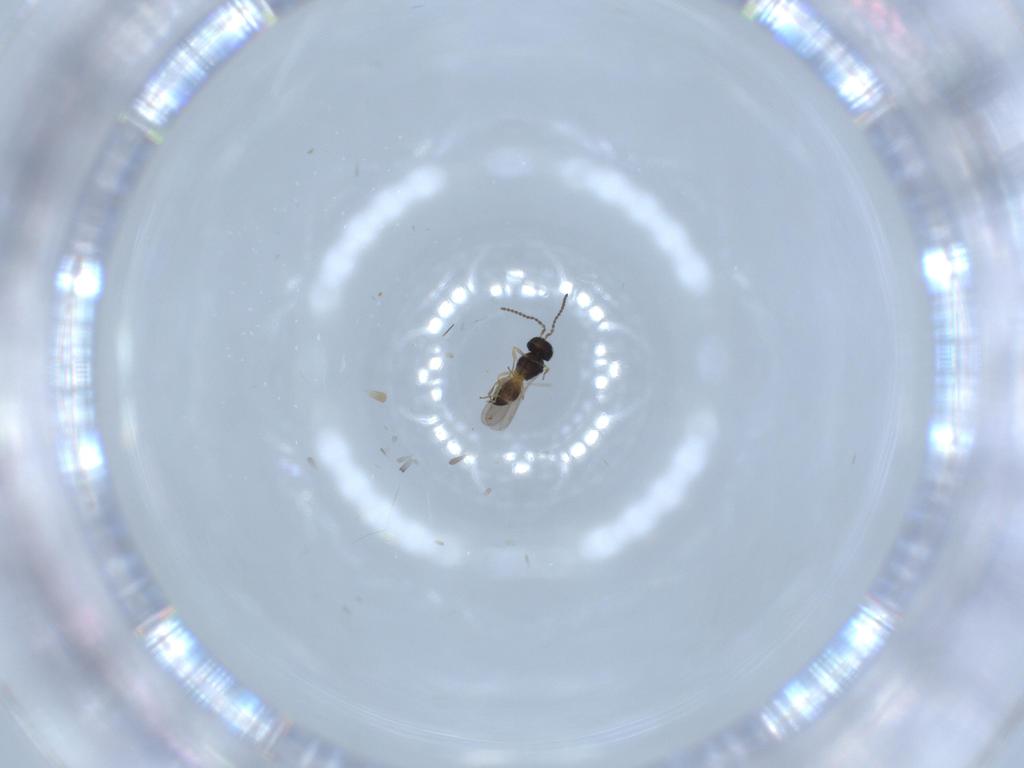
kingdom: Animalia
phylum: Arthropoda
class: Insecta
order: Hymenoptera
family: Scelionidae
